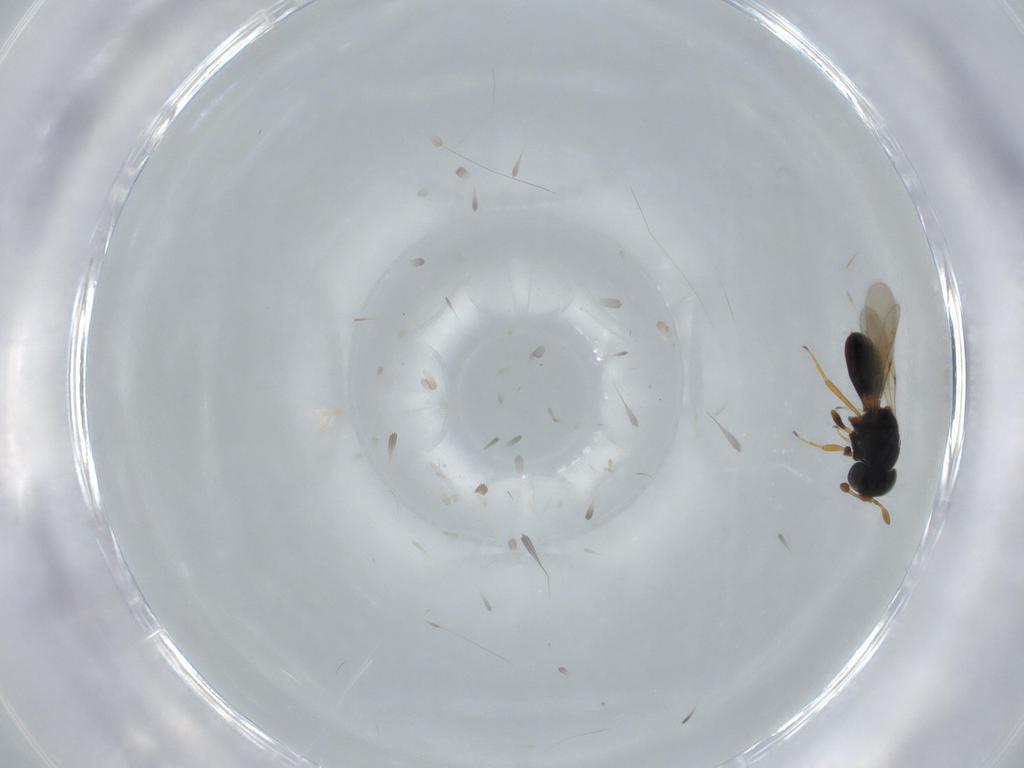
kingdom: Animalia
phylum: Arthropoda
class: Insecta
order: Hymenoptera
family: Scelionidae
